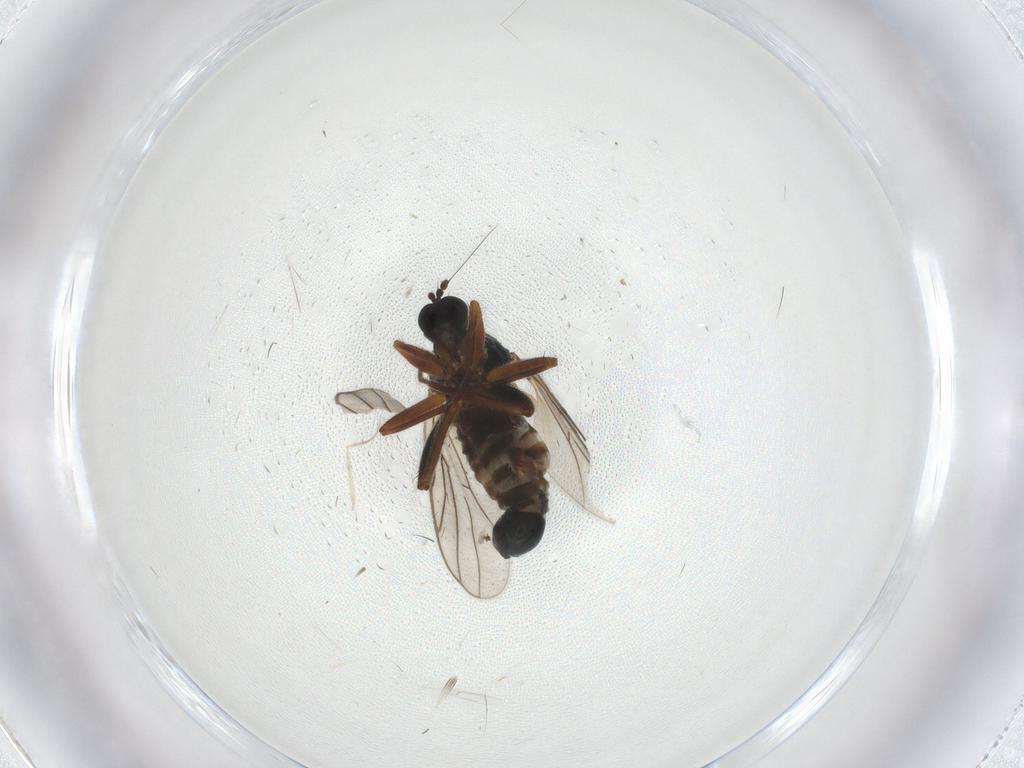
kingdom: Animalia
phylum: Arthropoda
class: Insecta
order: Diptera
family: Cecidomyiidae
